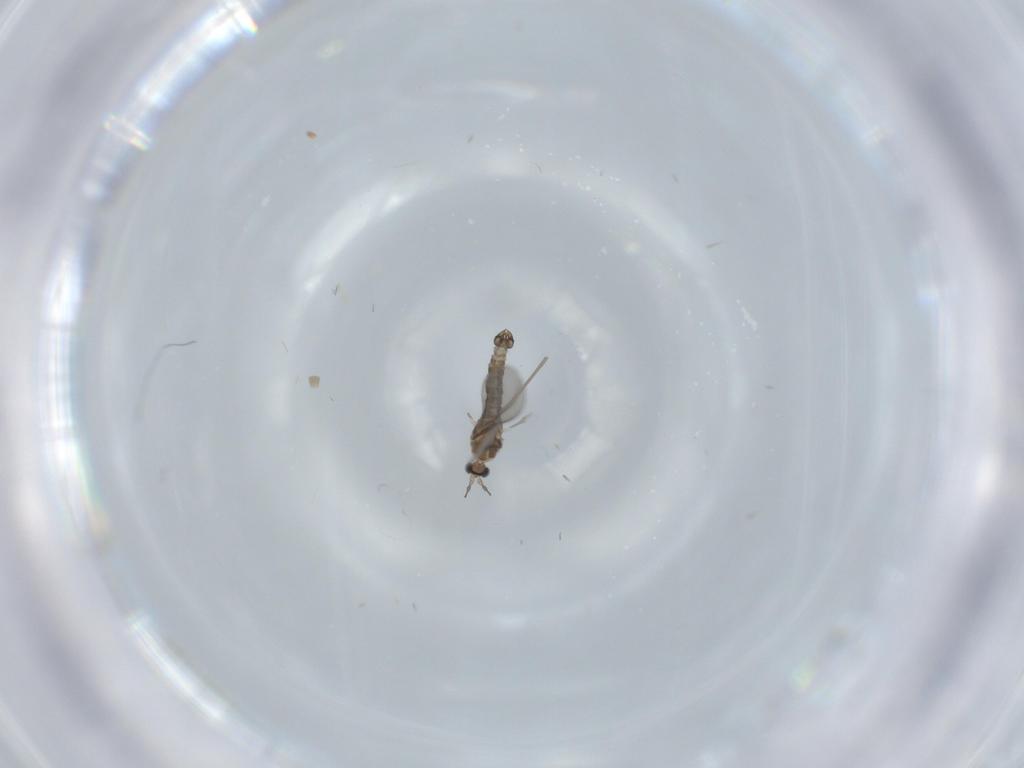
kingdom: Animalia
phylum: Arthropoda
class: Insecta
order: Diptera
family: Cecidomyiidae
